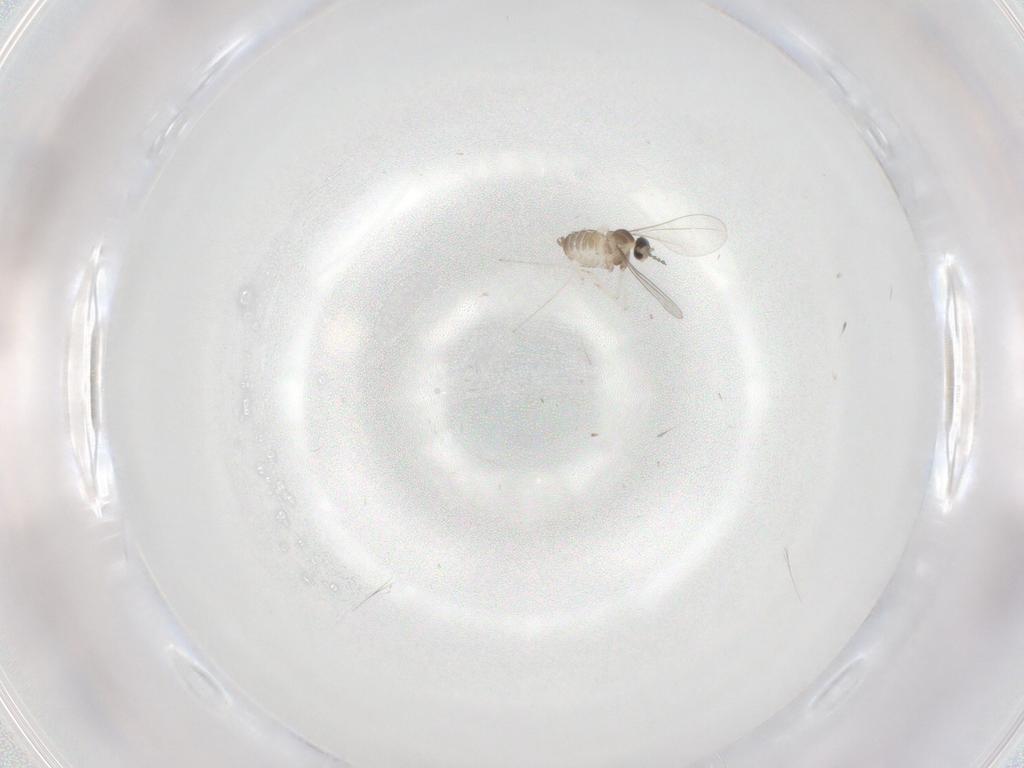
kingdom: Animalia
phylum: Arthropoda
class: Insecta
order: Diptera
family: Cecidomyiidae
